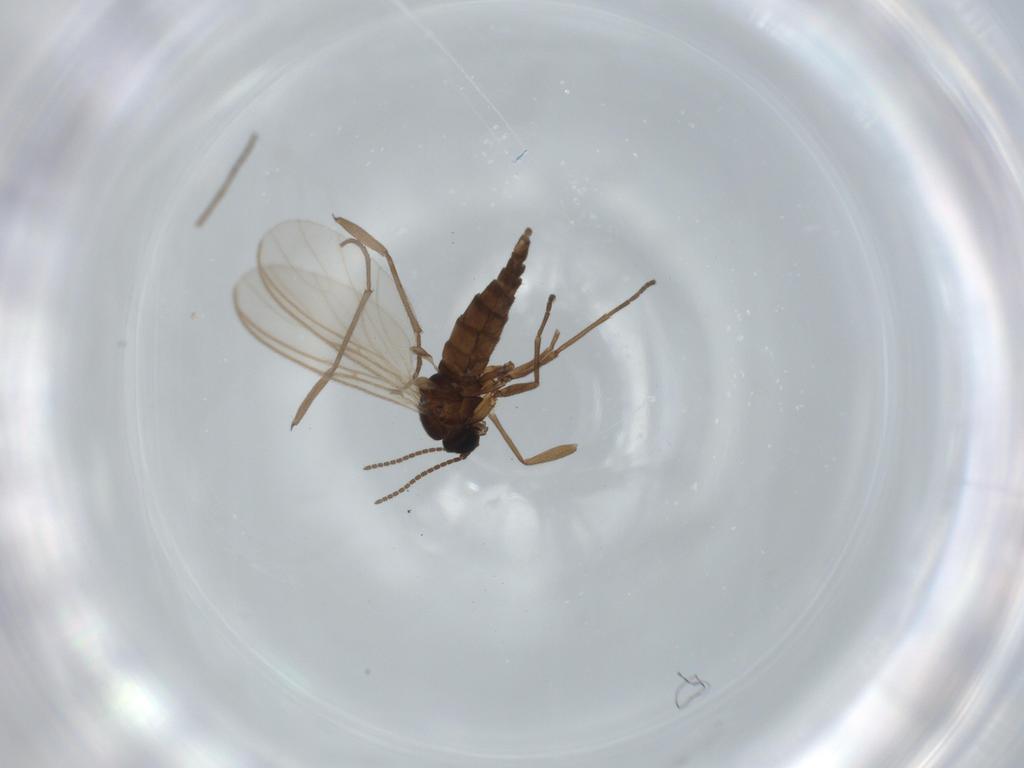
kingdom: Animalia
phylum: Arthropoda
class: Insecta
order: Diptera
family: Sciaridae
